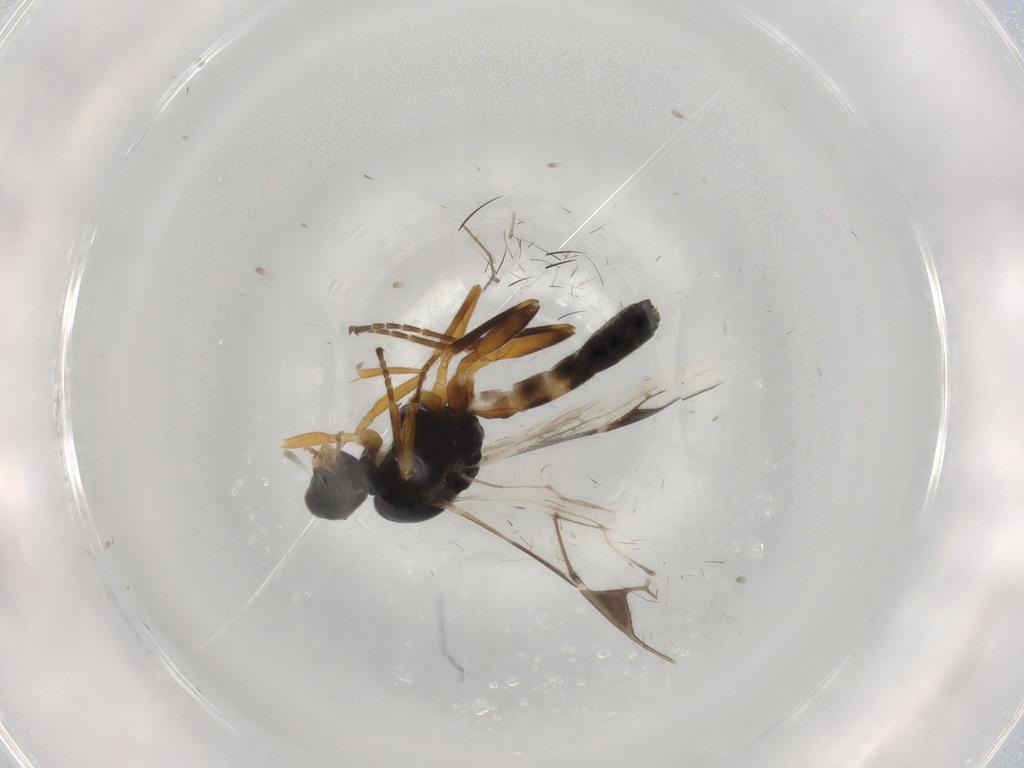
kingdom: Animalia
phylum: Arthropoda
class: Insecta
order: Hymenoptera
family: Braconidae
